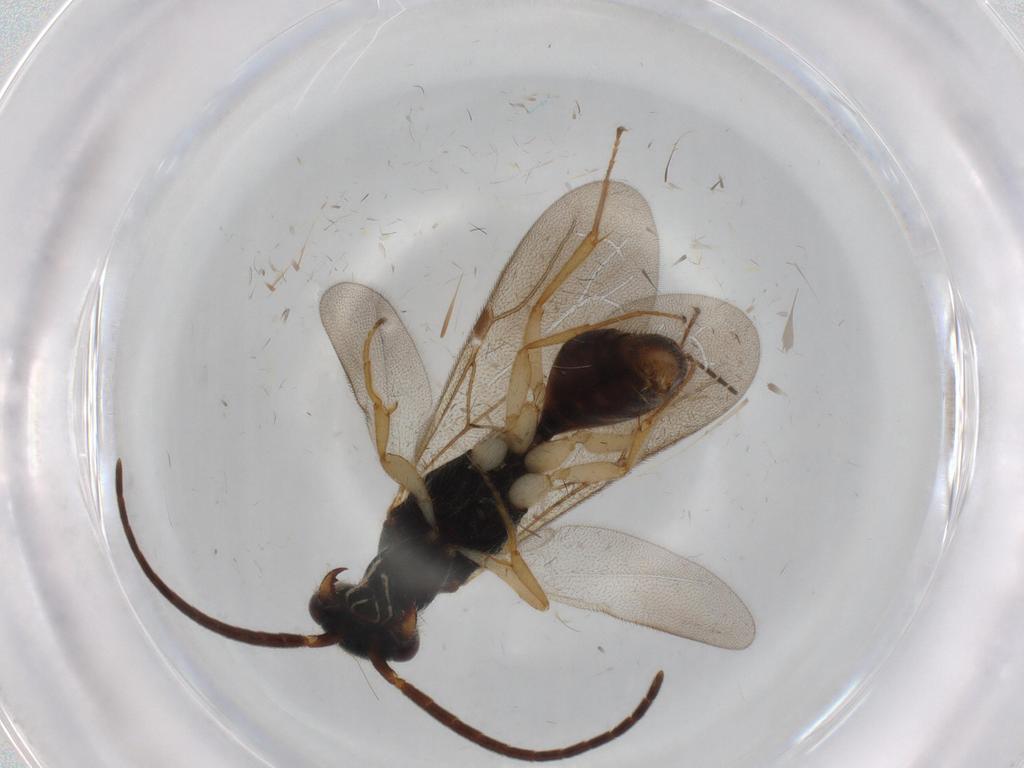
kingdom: Animalia
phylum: Arthropoda
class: Insecta
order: Hymenoptera
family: Bethylidae
